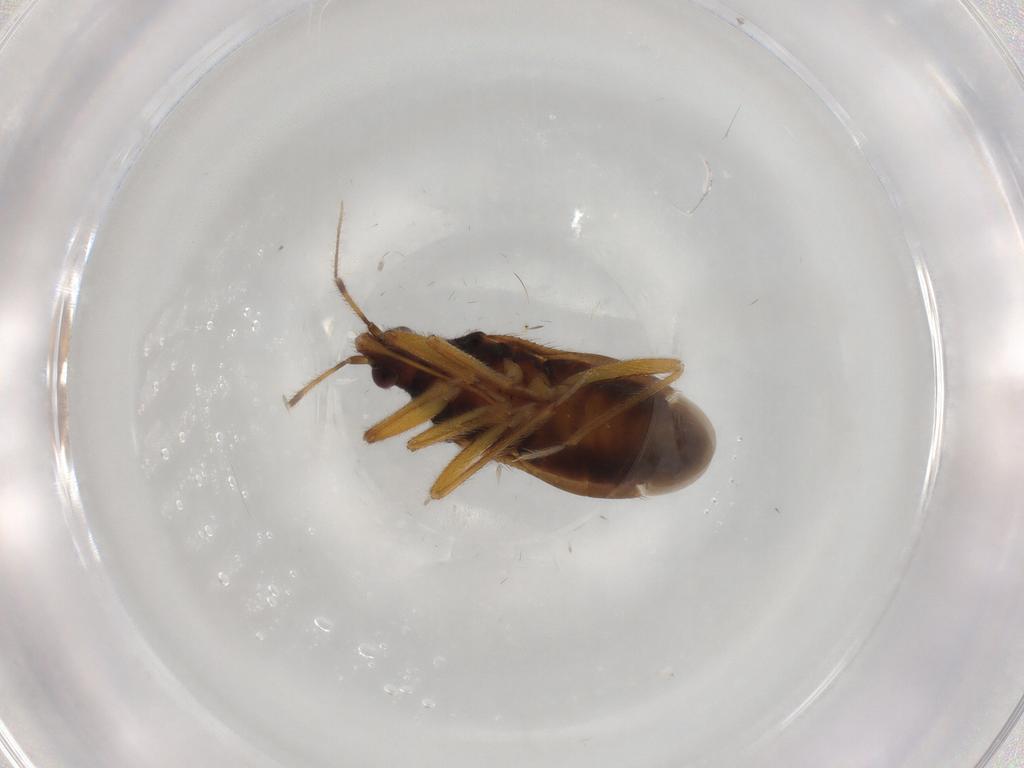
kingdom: Animalia
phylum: Arthropoda
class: Insecta
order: Hemiptera
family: Anthocoridae
